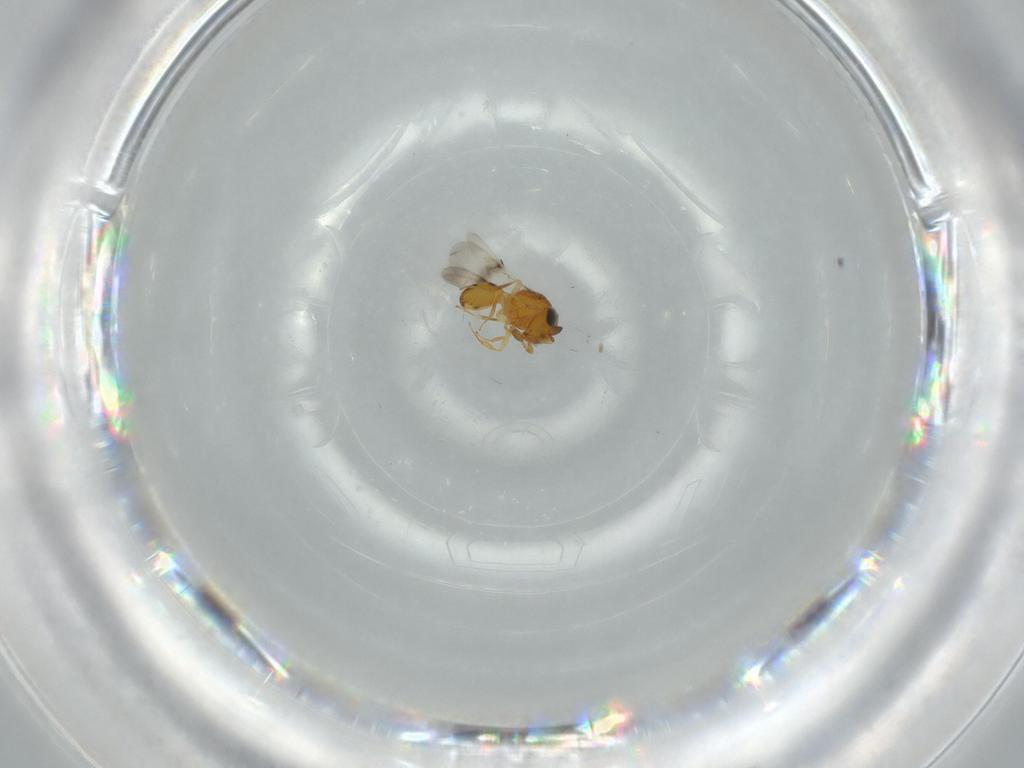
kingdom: Animalia
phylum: Arthropoda
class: Insecta
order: Hymenoptera
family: Scelionidae
